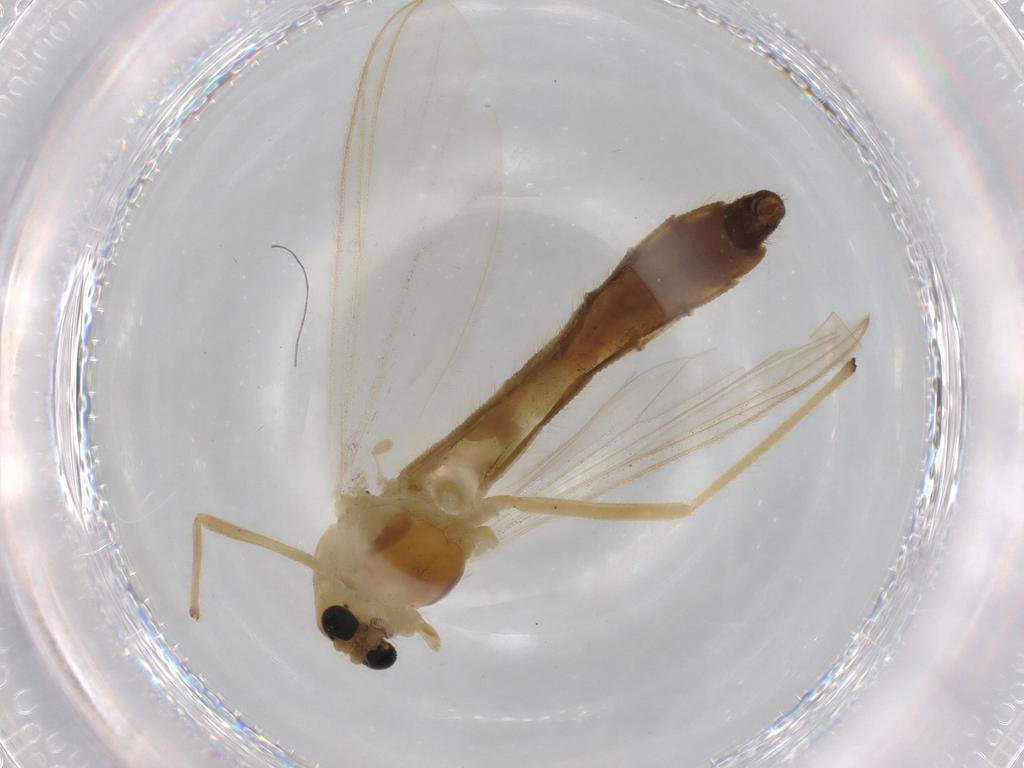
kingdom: Animalia
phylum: Arthropoda
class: Insecta
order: Diptera
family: Chironomidae
